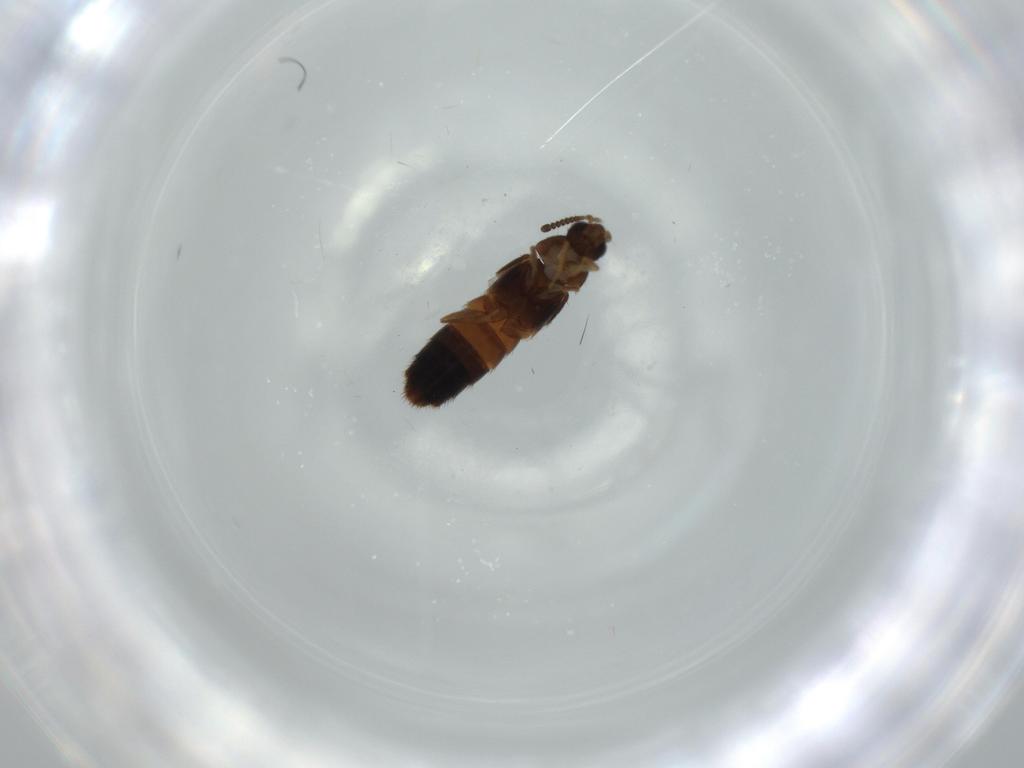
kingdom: Animalia
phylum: Arthropoda
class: Insecta
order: Coleoptera
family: Staphylinidae
